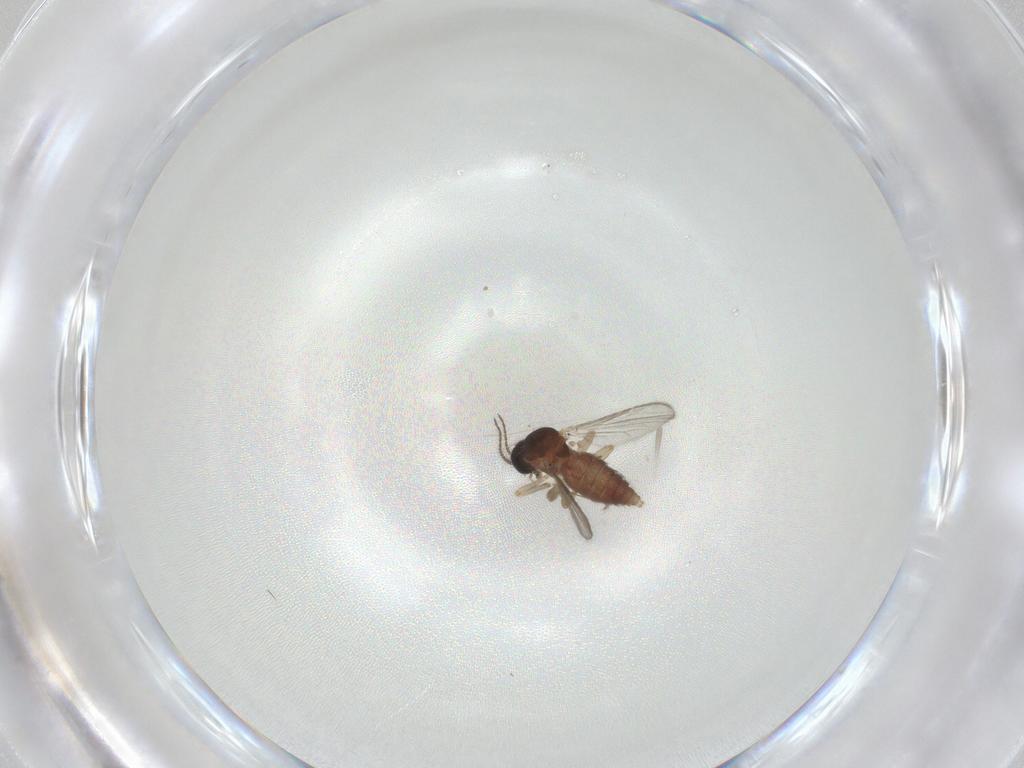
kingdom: Animalia
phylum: Arthropoda
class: Insecta
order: Diptera
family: Ceratopogonidae
